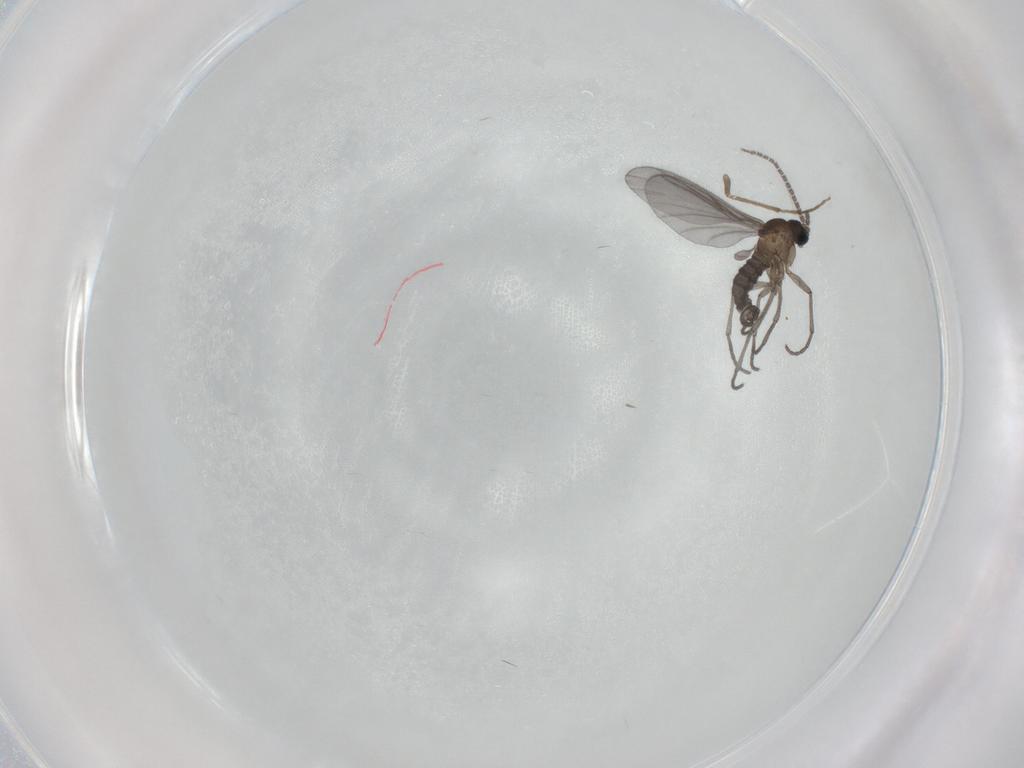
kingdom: Animalia
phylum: Arthropoda
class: Insecta
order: Diptera
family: Sciaridae
